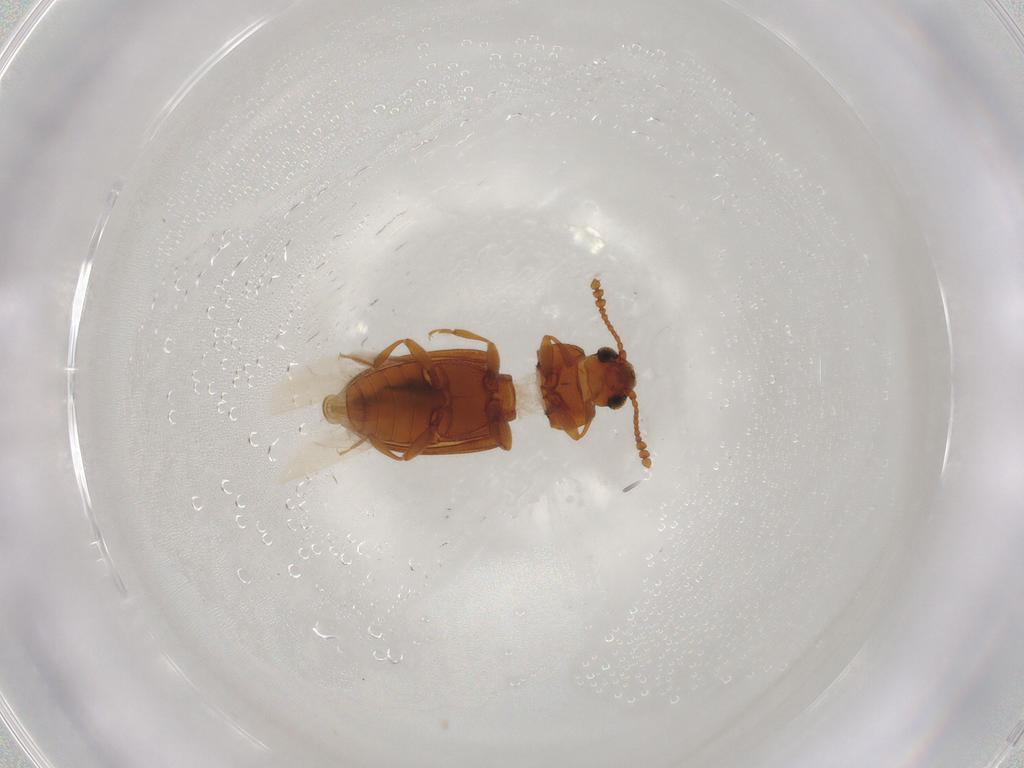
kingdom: Animalia
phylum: Arthropoda
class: Insecta
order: Coleoptera
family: Erotylidae
